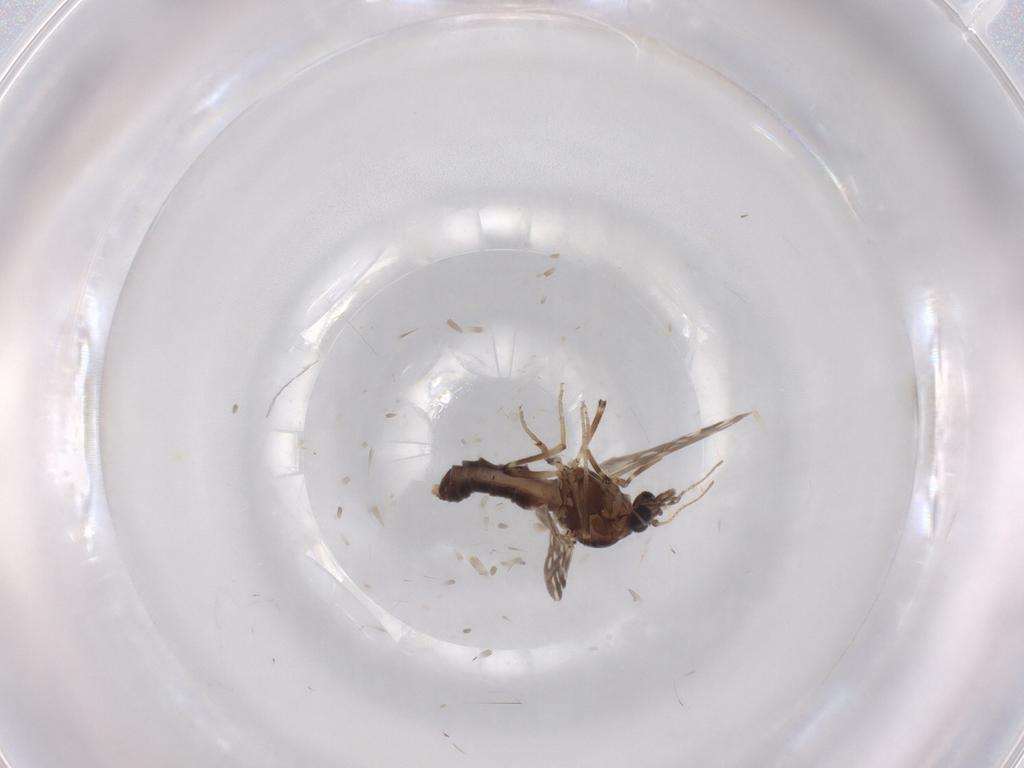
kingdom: Animalia
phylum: Arthropoda
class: Insecta
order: Diptera
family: Ceratopogonidae
